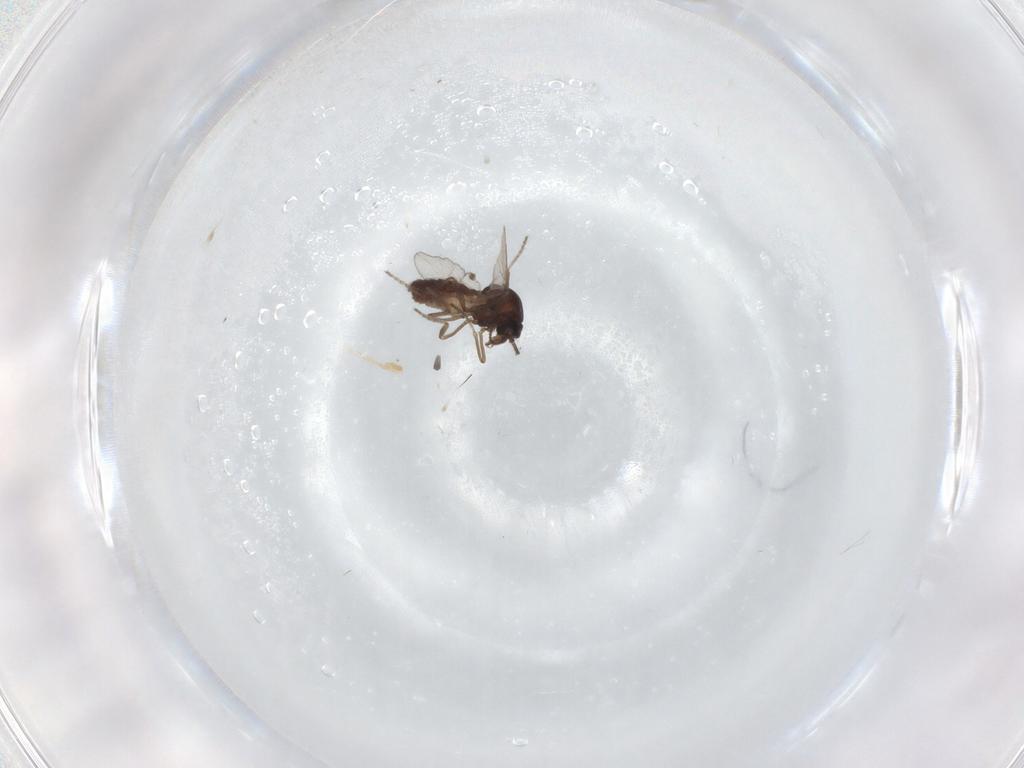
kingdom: Animalia
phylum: Arthropoda
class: Insecta
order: Diptera
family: Ceratopogonidae
